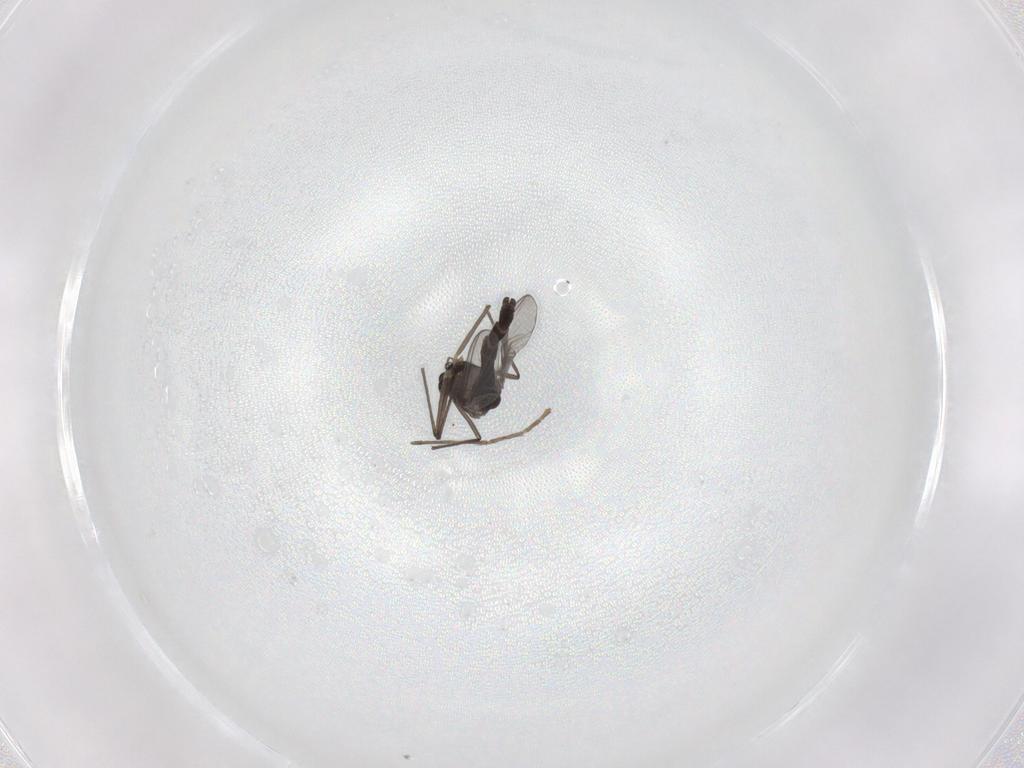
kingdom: Animalia
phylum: Arthropoda
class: Insecta
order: Diptera
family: Chironomidae
